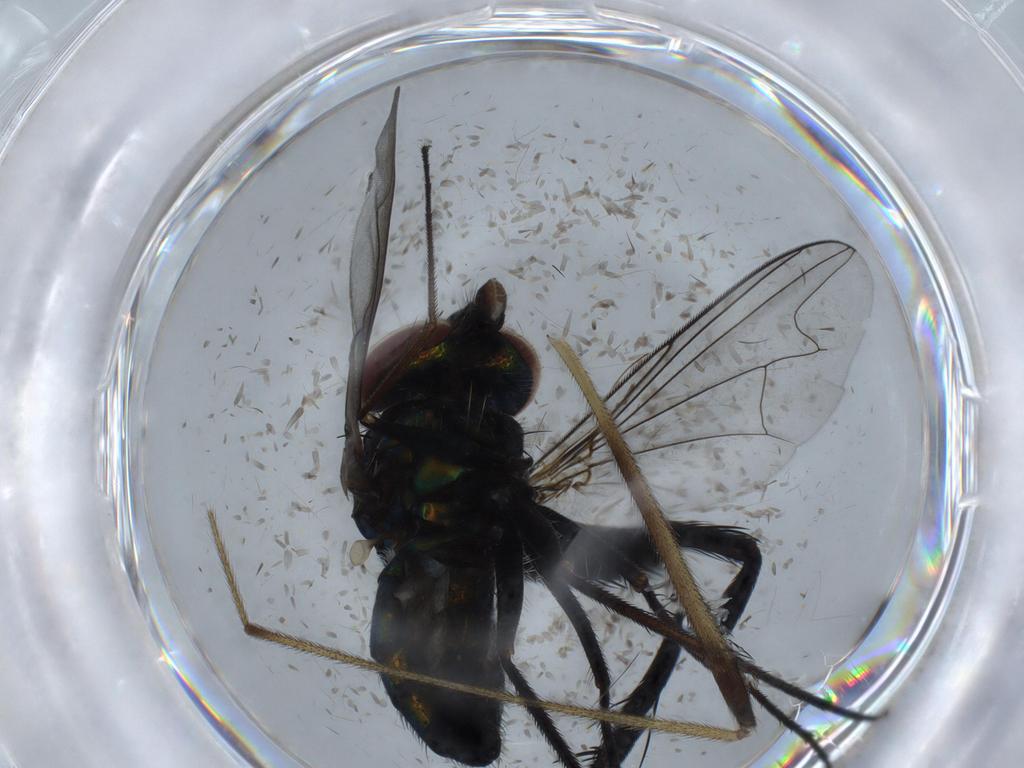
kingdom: Animalia
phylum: Arthropoda
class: Insecta
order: Diptera
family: Dolichopodidae
